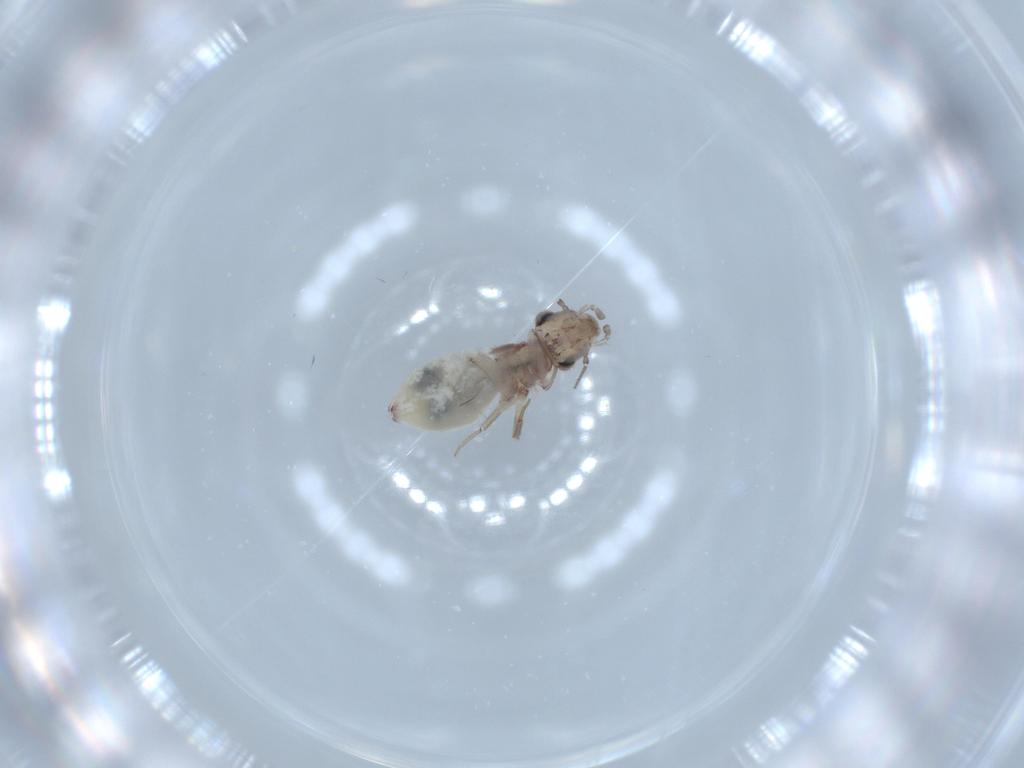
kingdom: Animalia
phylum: Arthropoda
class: Insecta
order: Psocodea
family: Lepidopsocidae
